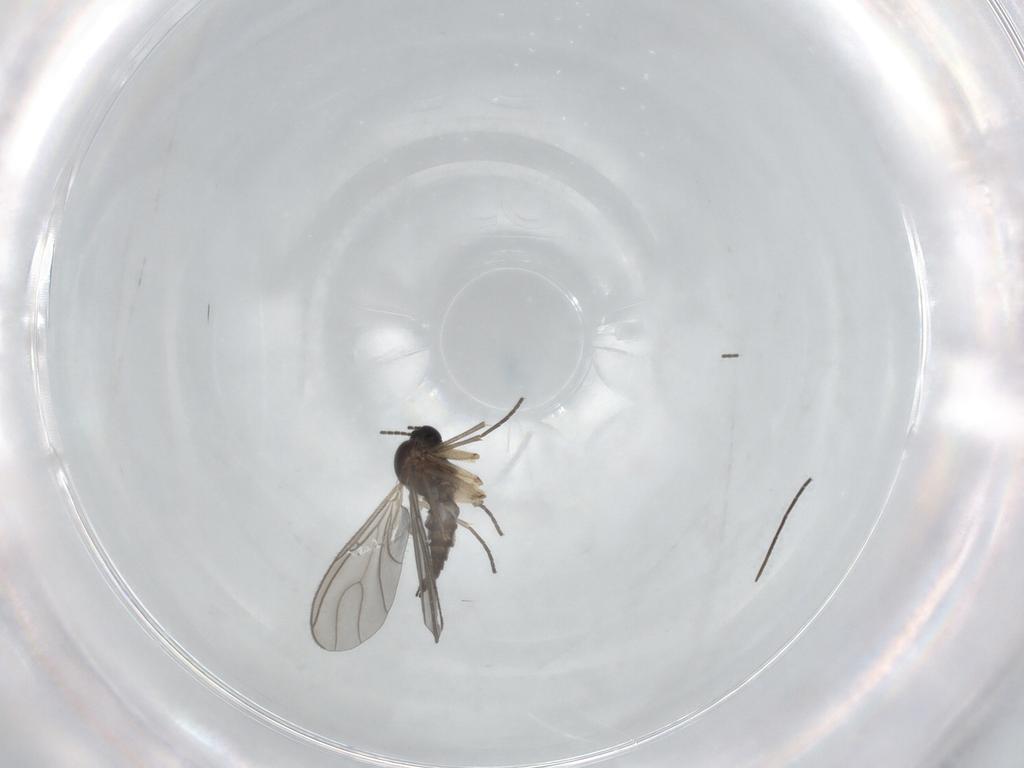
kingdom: Animalia
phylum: Arthropoda
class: Insecta
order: Diptera
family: Sciaridae
